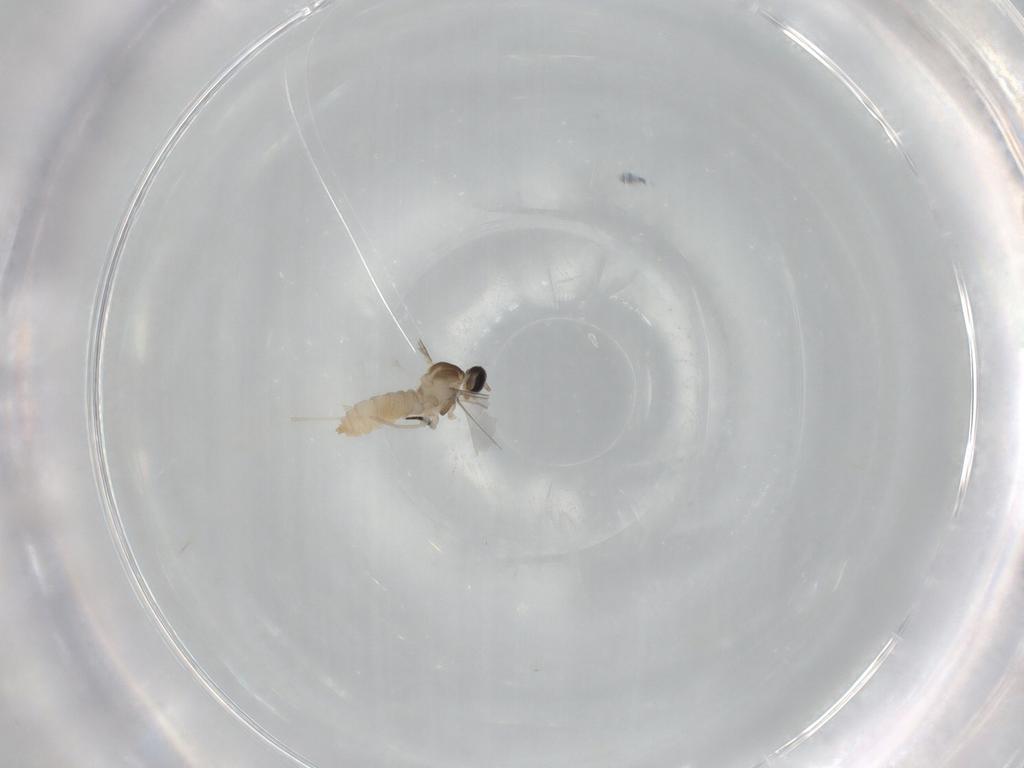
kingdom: Animalia
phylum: Arthropoda
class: Insecta
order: Diptera
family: Cecidomyiidae
